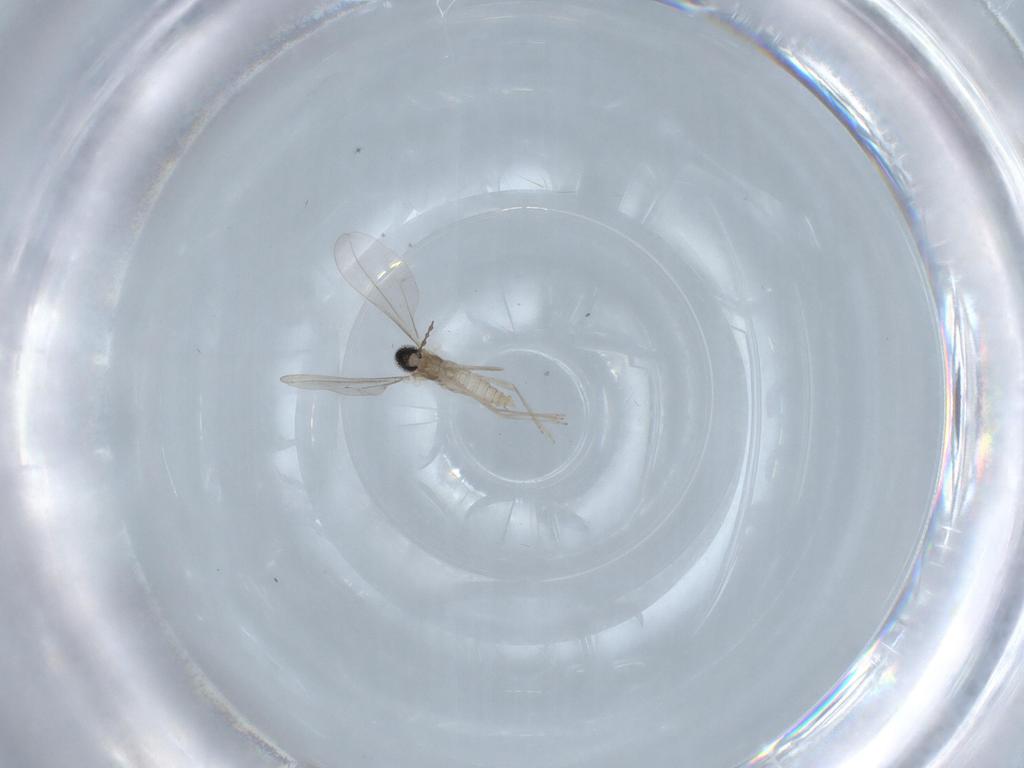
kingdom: Animalia
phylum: Arthropoda
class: Insecta
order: Diptera
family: Cecidomyiidae
